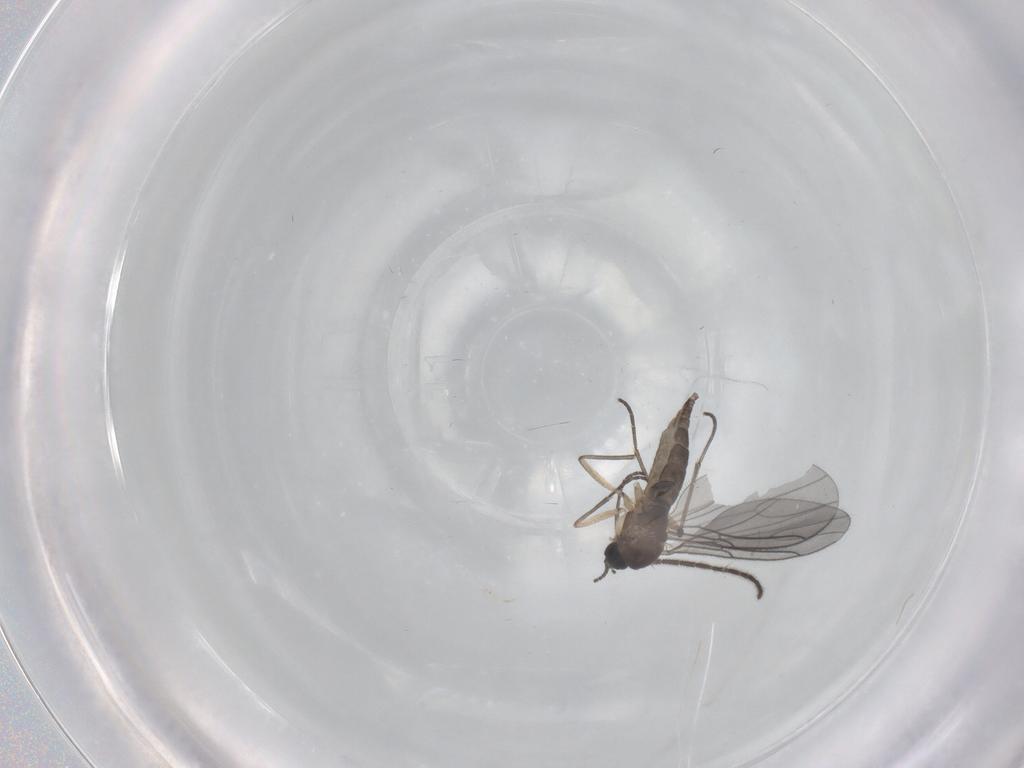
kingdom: Animalia
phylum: Arthropoda
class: Insecta
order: Diptera
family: Sciaridae
